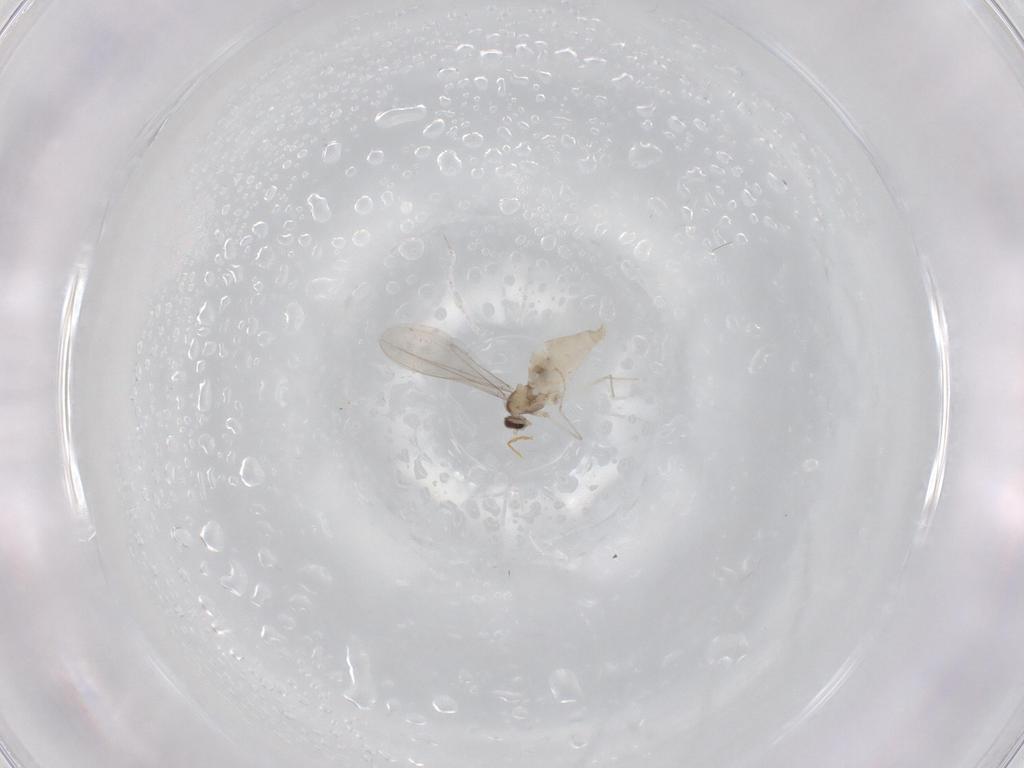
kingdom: Animalia
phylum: Arthropoda
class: Insecta
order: Diptera
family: Cecidomyiidae
